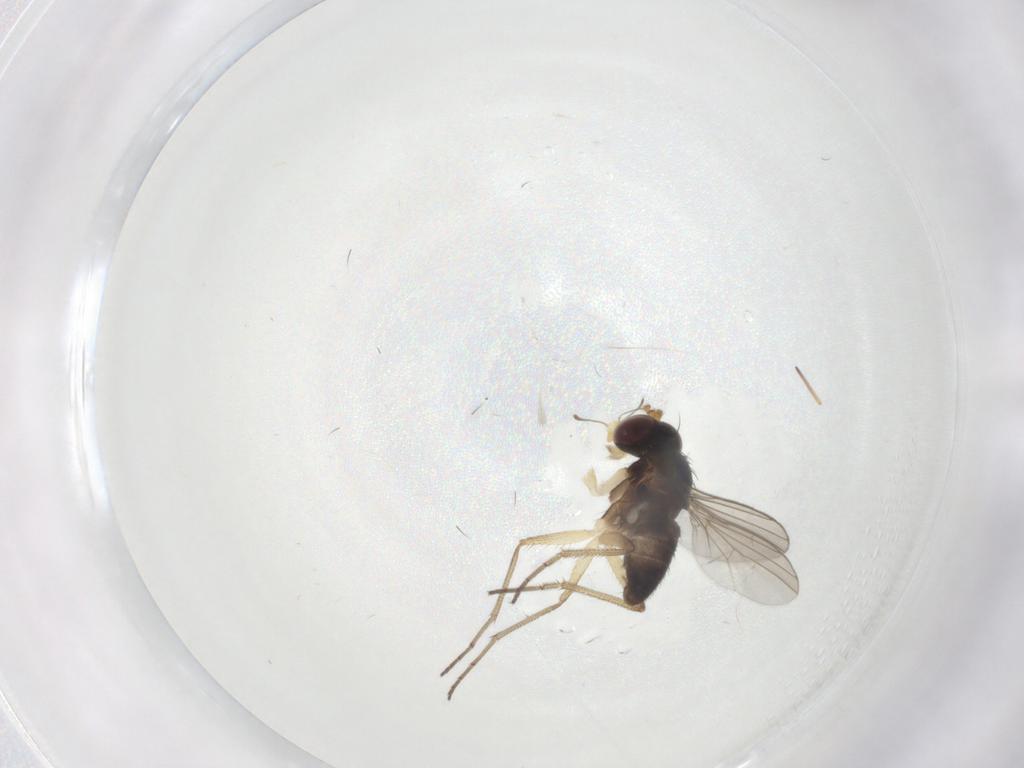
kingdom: Animalia
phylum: Arthropoda
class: Insecta
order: Diptera
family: Dolichopodidae
